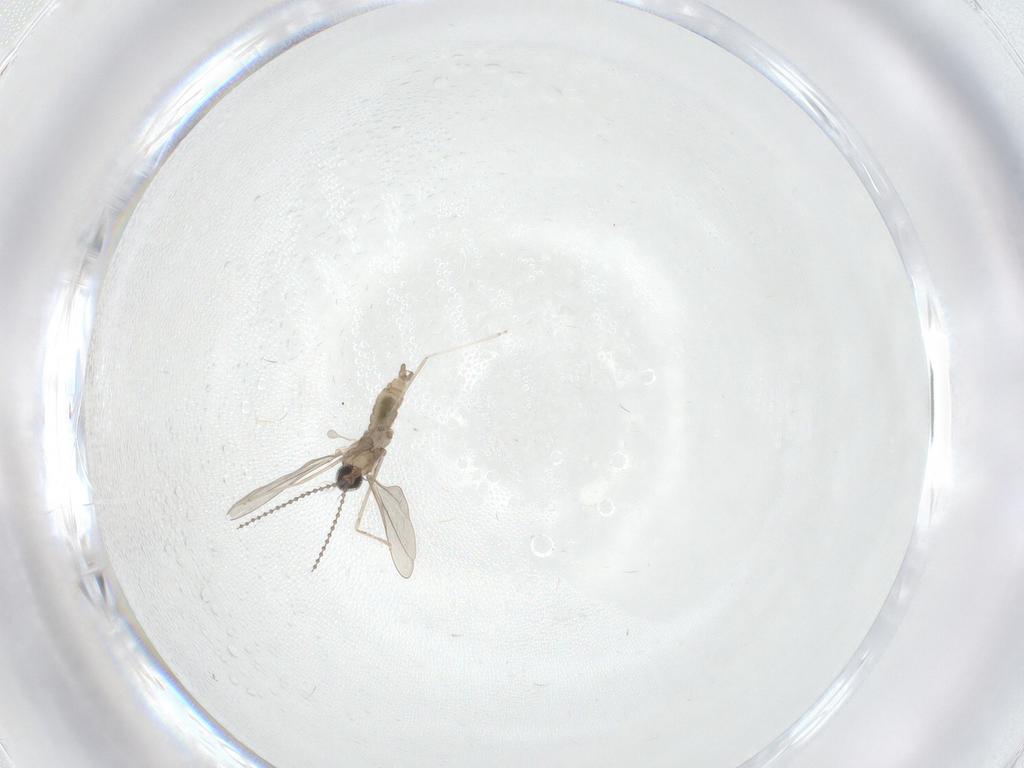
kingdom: Animalia
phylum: Arthropoda
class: Insecta
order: Diptera
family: Cecidomyiidae
